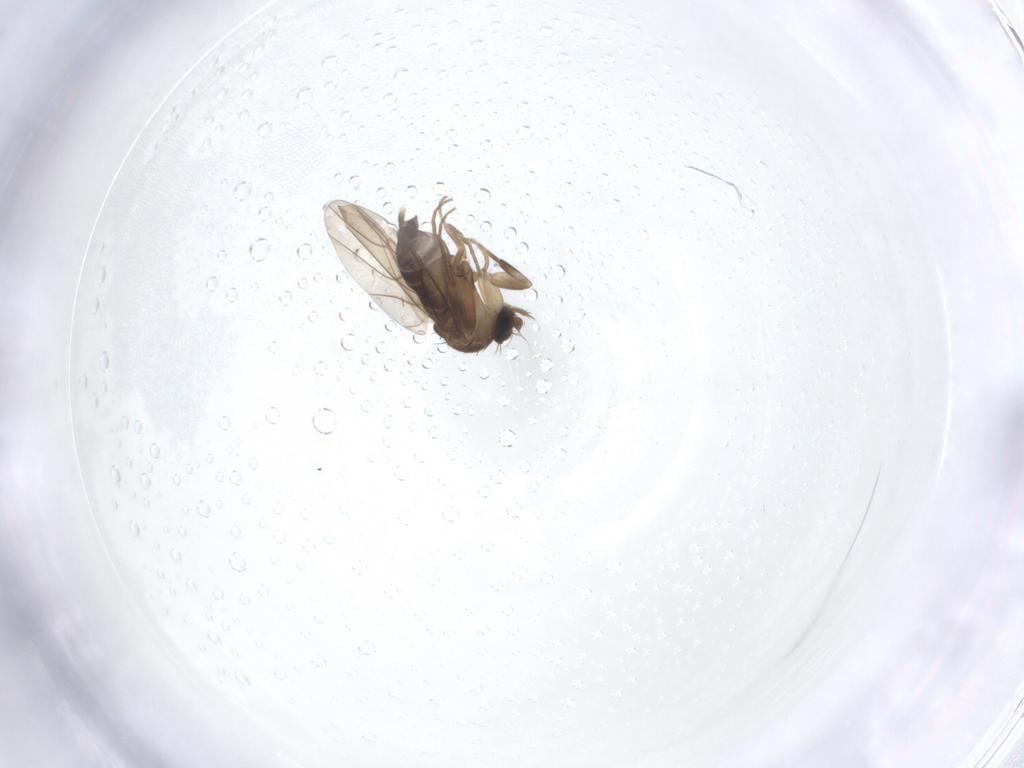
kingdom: Animalia
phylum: Arthropoda
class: Insecta
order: Diptera
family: Phoridae
